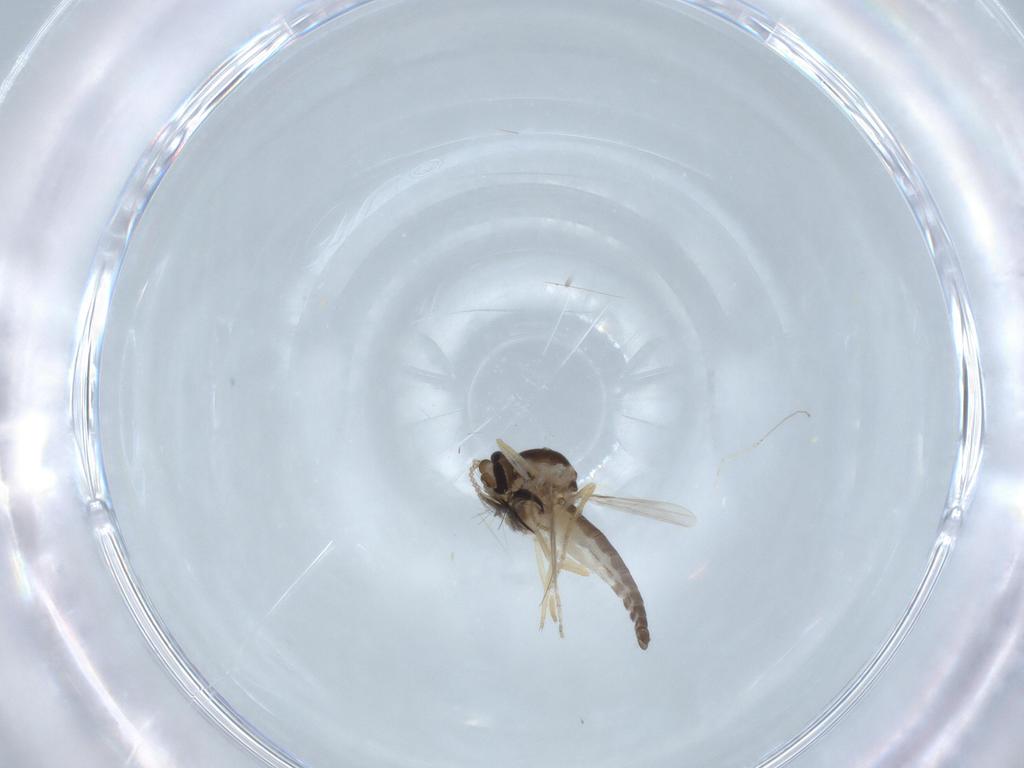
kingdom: Animalia
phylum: Arthropoda
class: Insecta
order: Diptera
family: Ceratopogonidae
